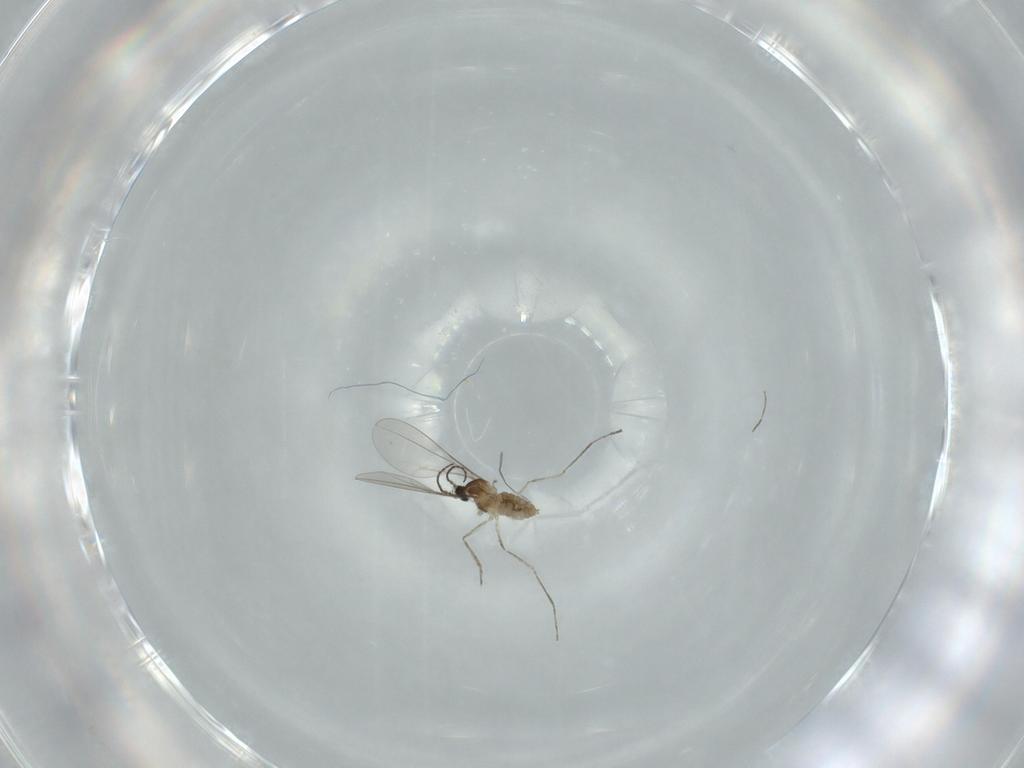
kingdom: Animalia
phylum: Arthropoda
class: Insecta
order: Diptera
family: Cecidomyiidae
